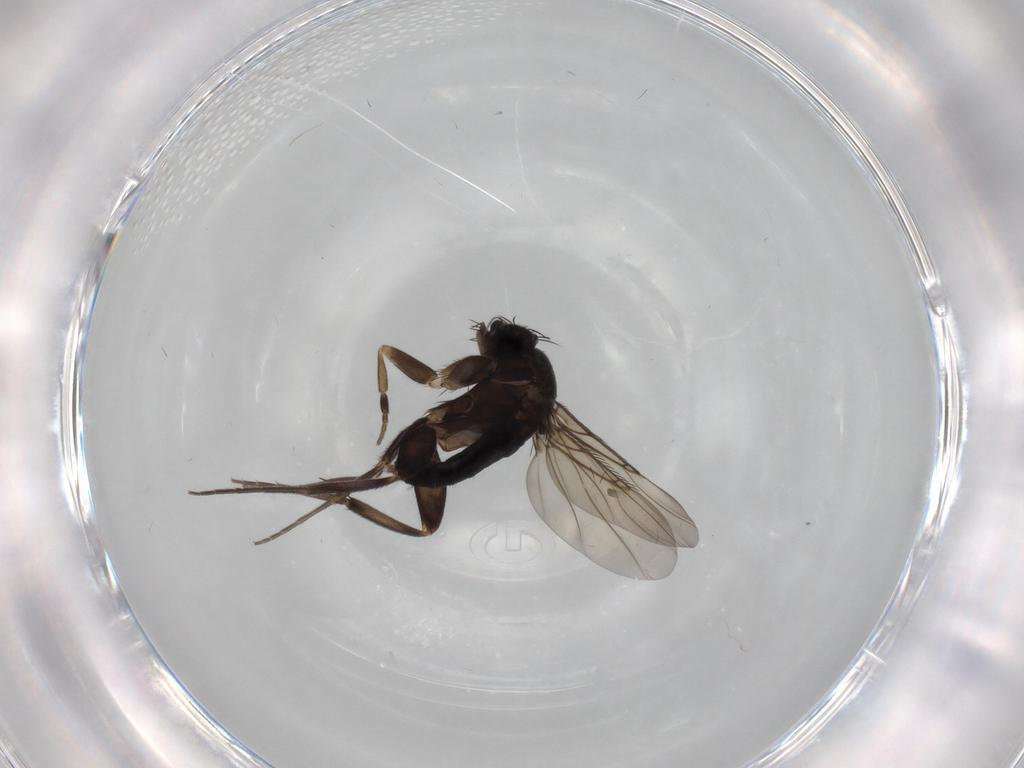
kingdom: Animalia
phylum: Arthropoda
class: Insecta
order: Diptera
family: Phoridae
